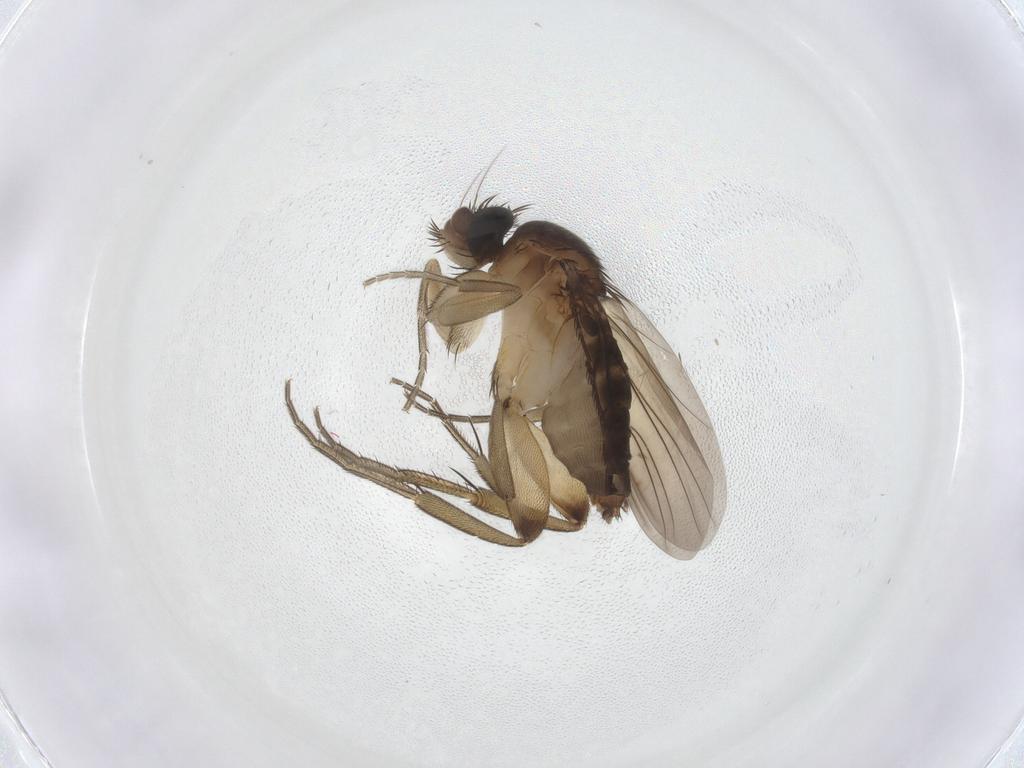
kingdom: Animalia
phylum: Arthropoda
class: Insecta
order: Diptera
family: Phoridae
